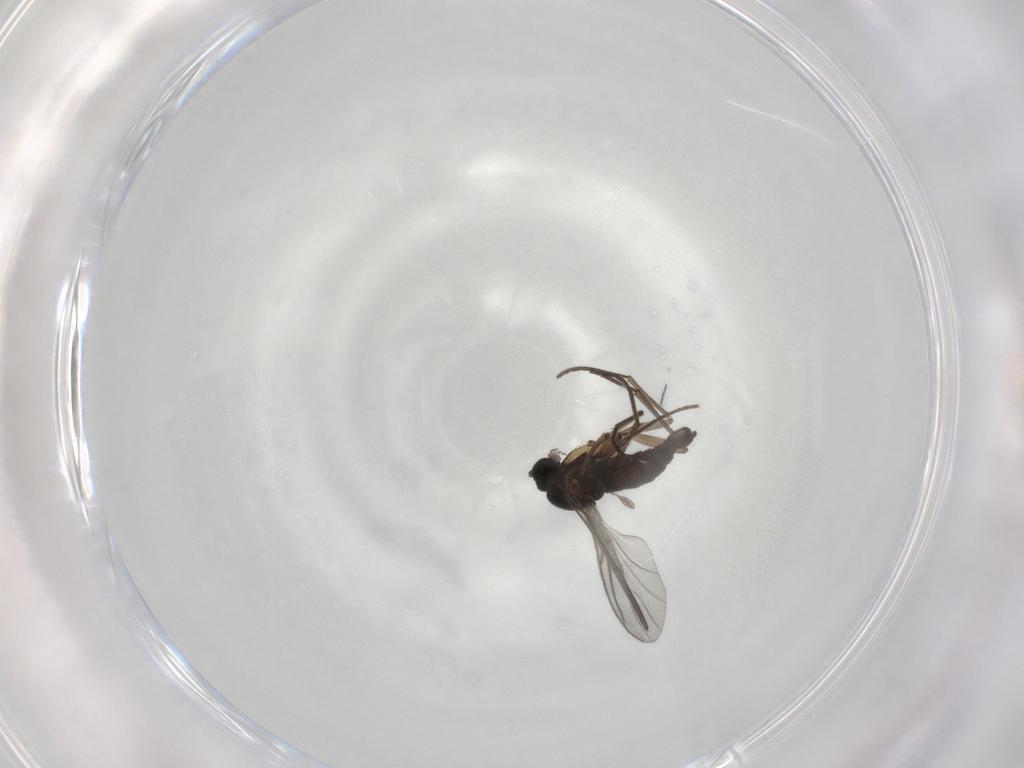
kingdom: Animalia
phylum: Arthropoda
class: Insecta
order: Diptera
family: Sciaridae
